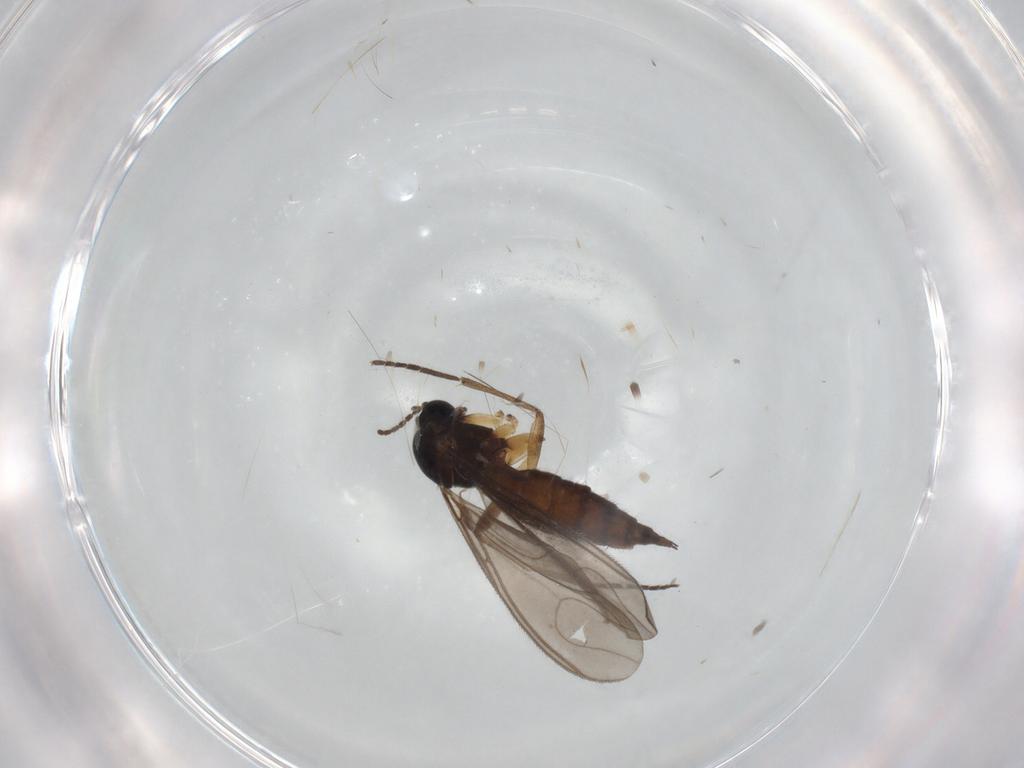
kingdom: Animalia
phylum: Arthropoda
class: Insecta
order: Diptera
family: Sciaridae
